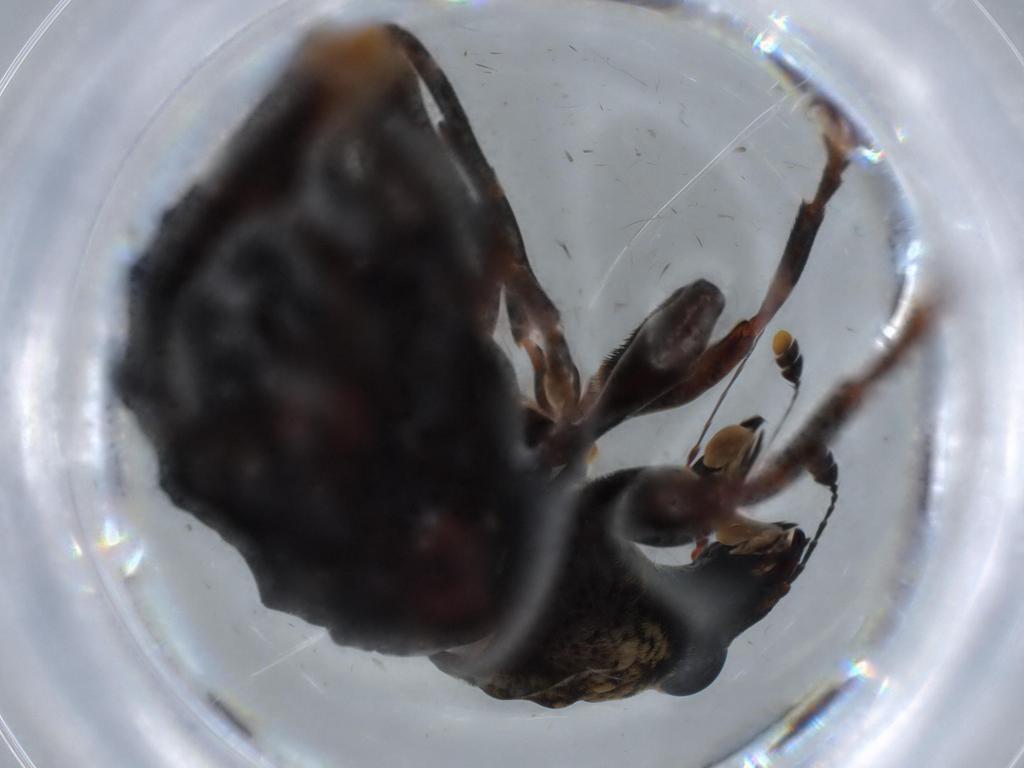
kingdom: Animalia
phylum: Arthropoda
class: Insecta
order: Coleoptera
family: Anthribidae
